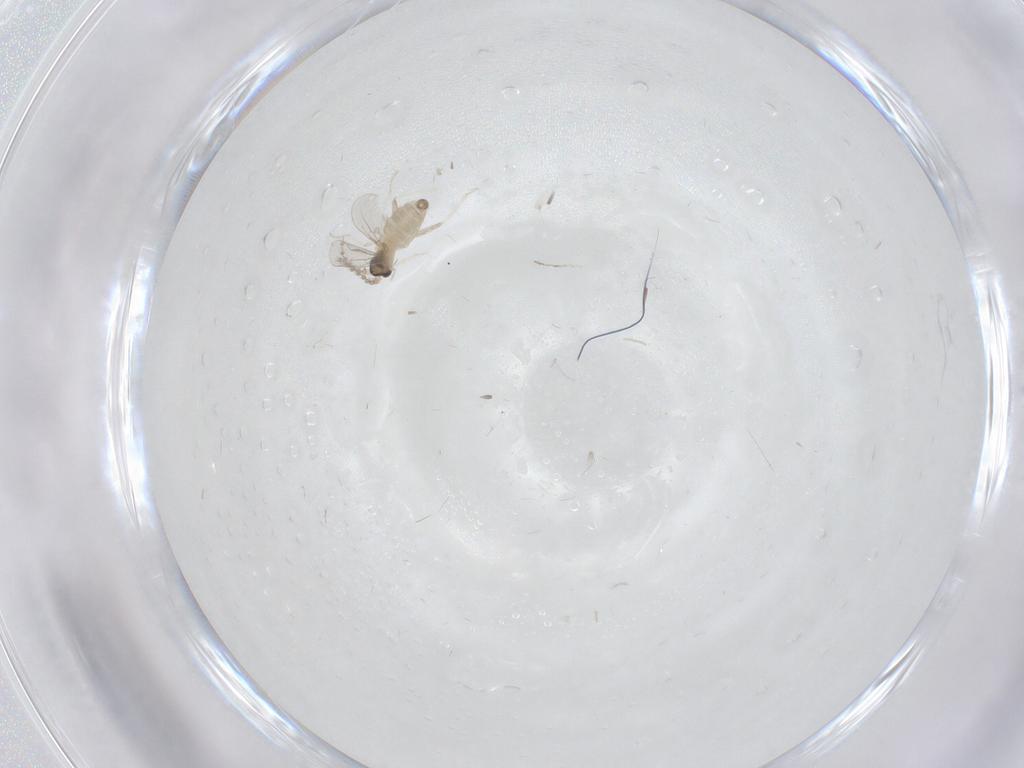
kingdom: Animalia
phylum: Arthropoda
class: Insecta
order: Diptera
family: Cecidomyiidae
